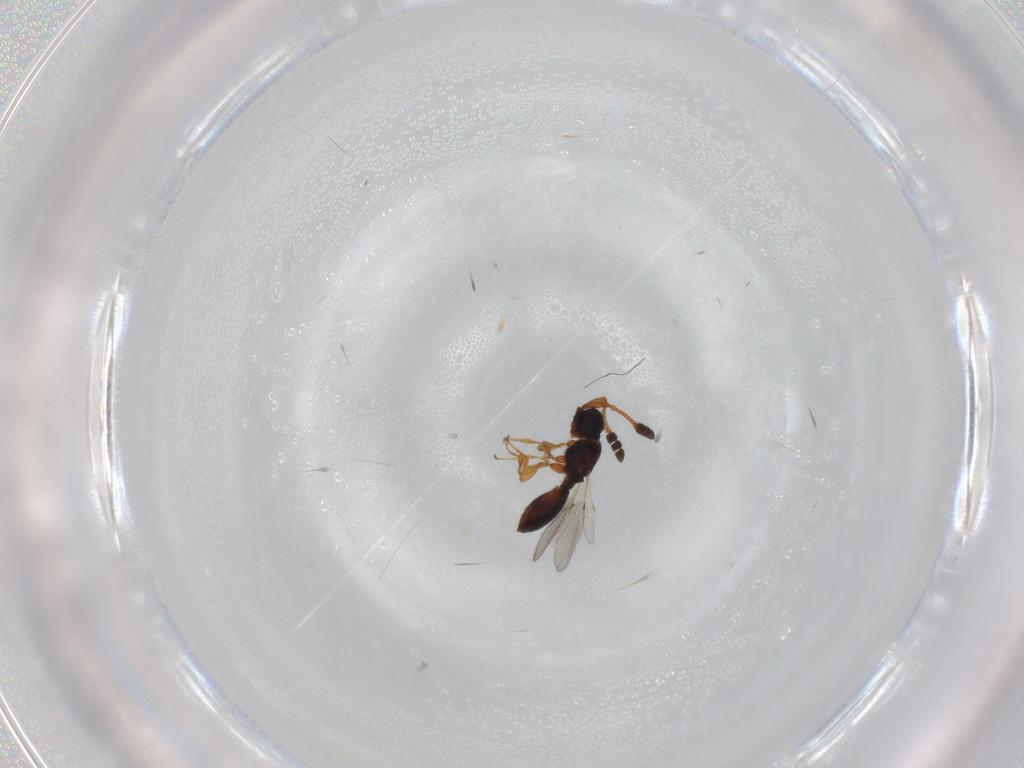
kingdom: Animalia
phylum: Arthropoda
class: Insecta
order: Hymenoptera
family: Diapriidae
